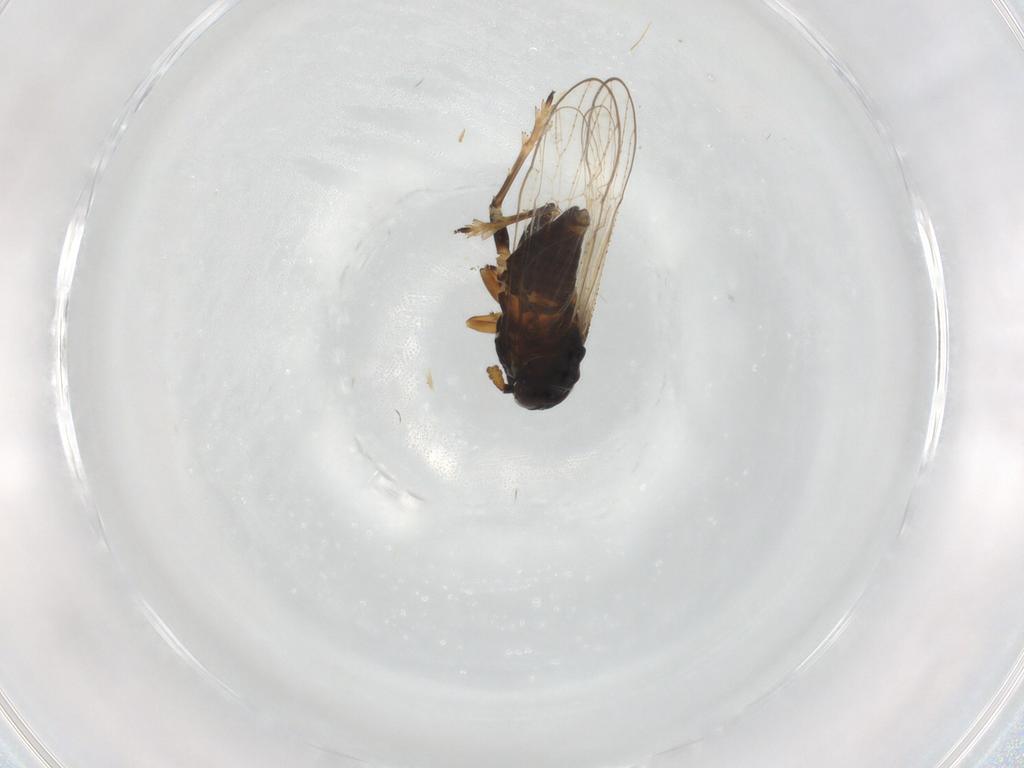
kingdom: Animalia
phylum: Arthropoda
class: Insecta
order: Hemiptera
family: Delphacidae
